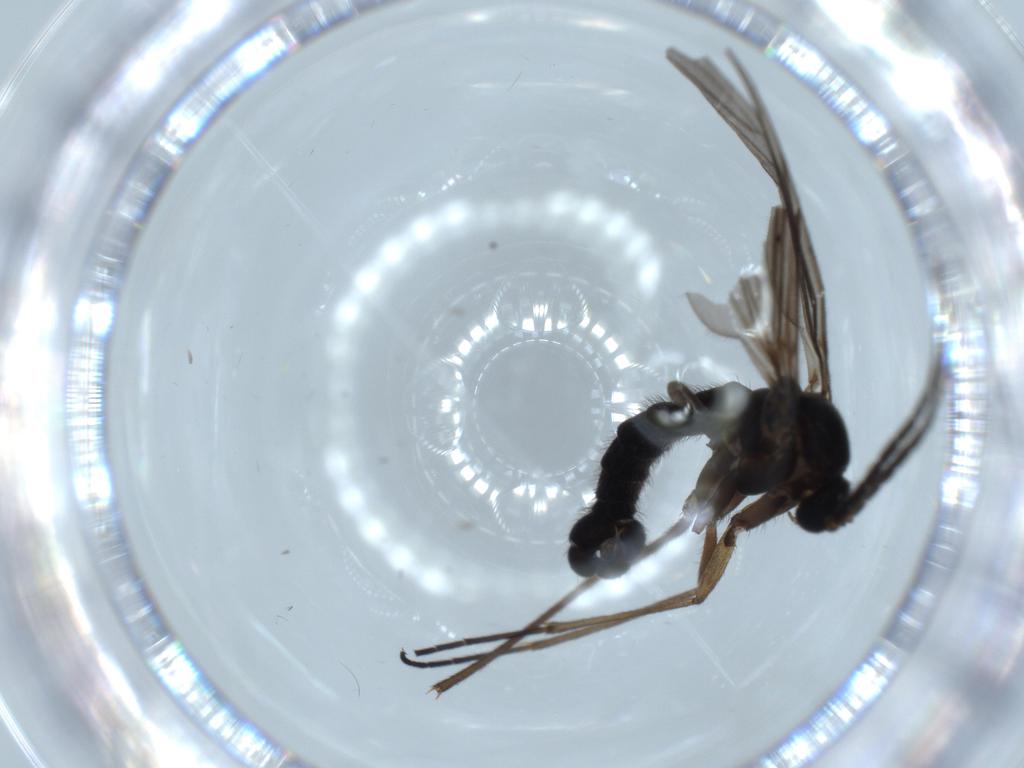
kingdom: Animalia
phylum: Arthropoda
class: Insecta
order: Diptera
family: Sciaridae
